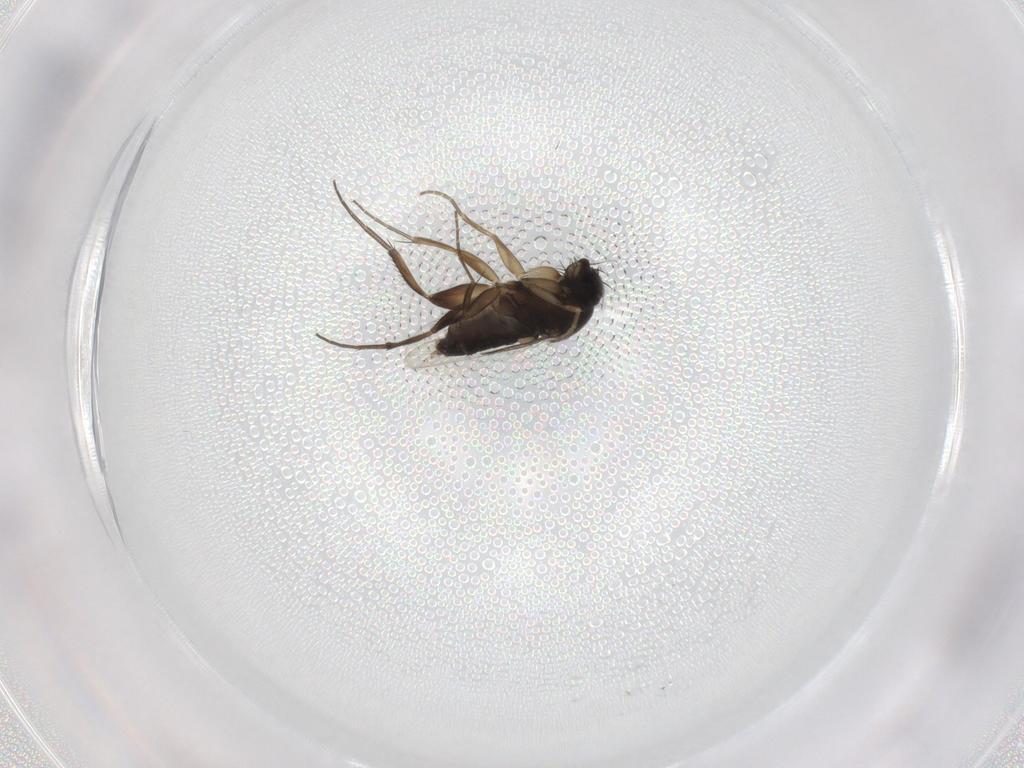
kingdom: Animalia
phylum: Arthropoda
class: Insecta
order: Diptera
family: Phoridae
